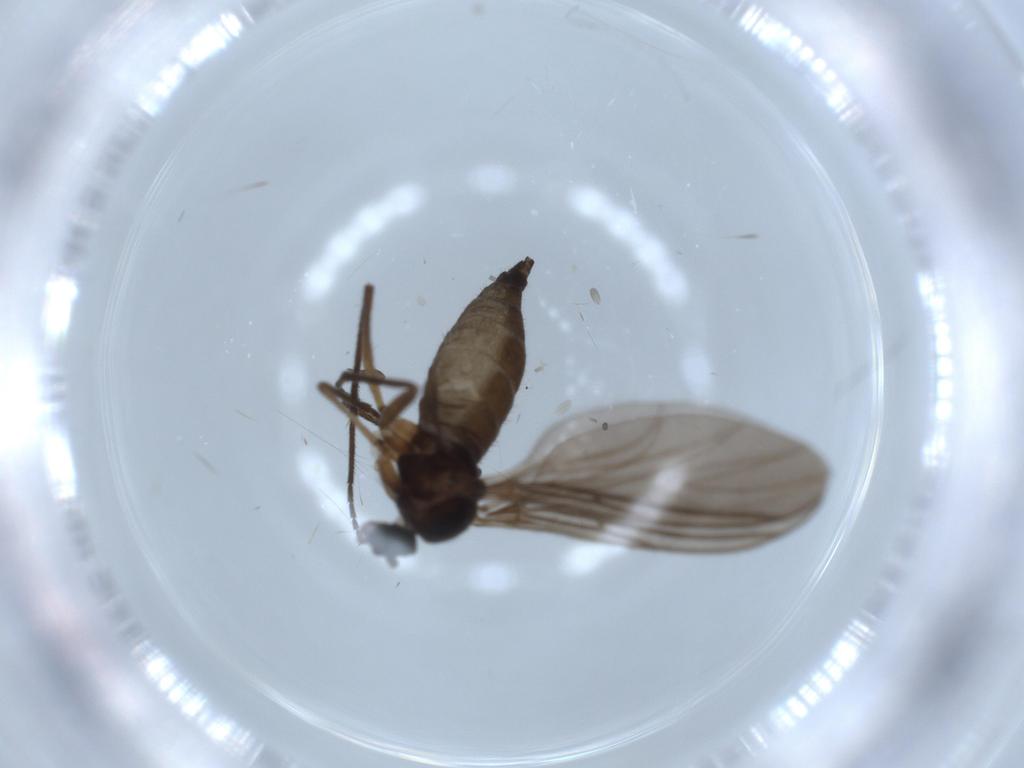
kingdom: Animalia
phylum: Arthropoda
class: Insecta
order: Diptera
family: Sciaridae
